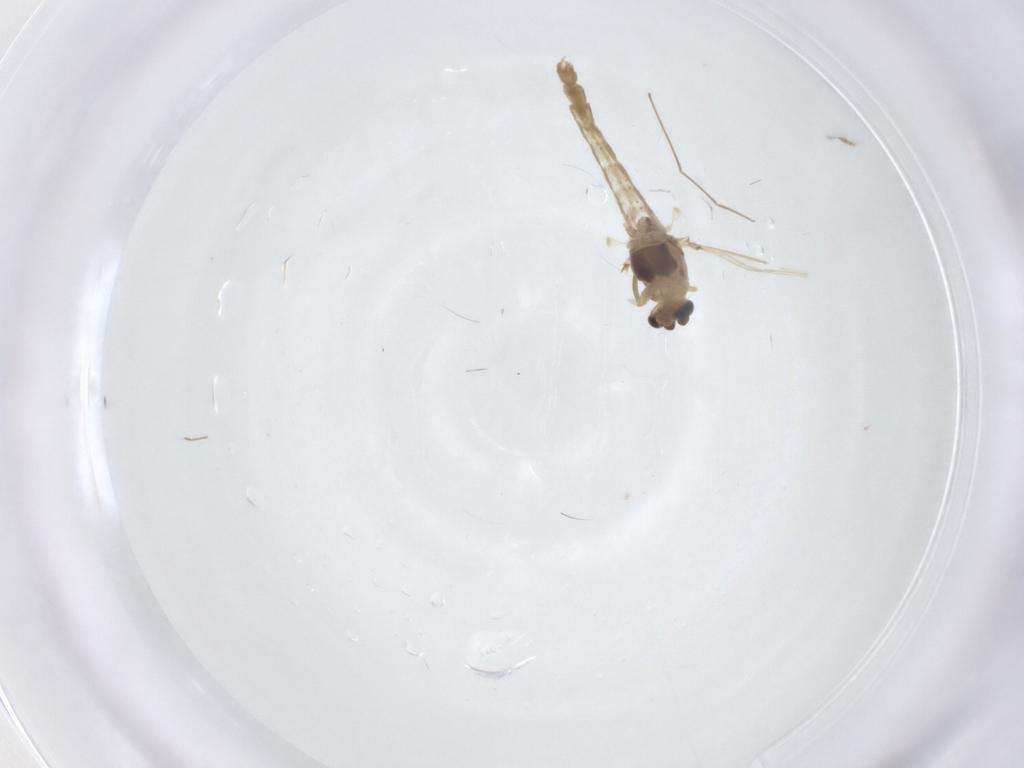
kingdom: Animalia
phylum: Arthropoda
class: Insecta
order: Diptera
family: Chironomidae
